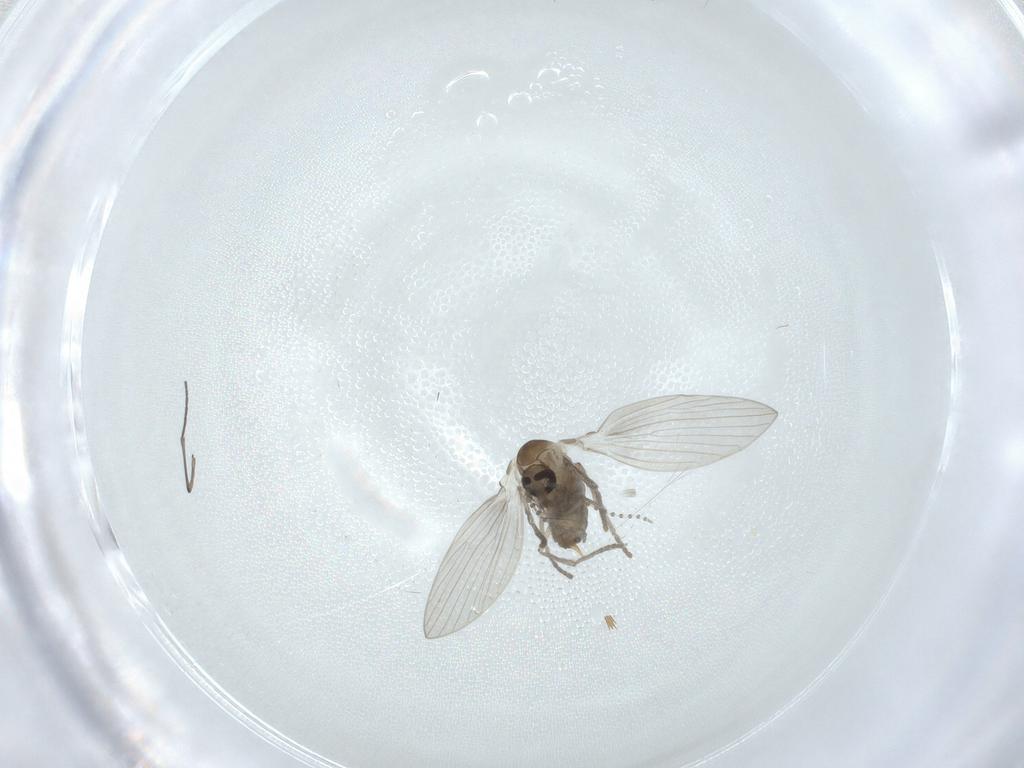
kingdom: Animalia
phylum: Arthropoda
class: Insecta
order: Diptera
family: Psychodidae
